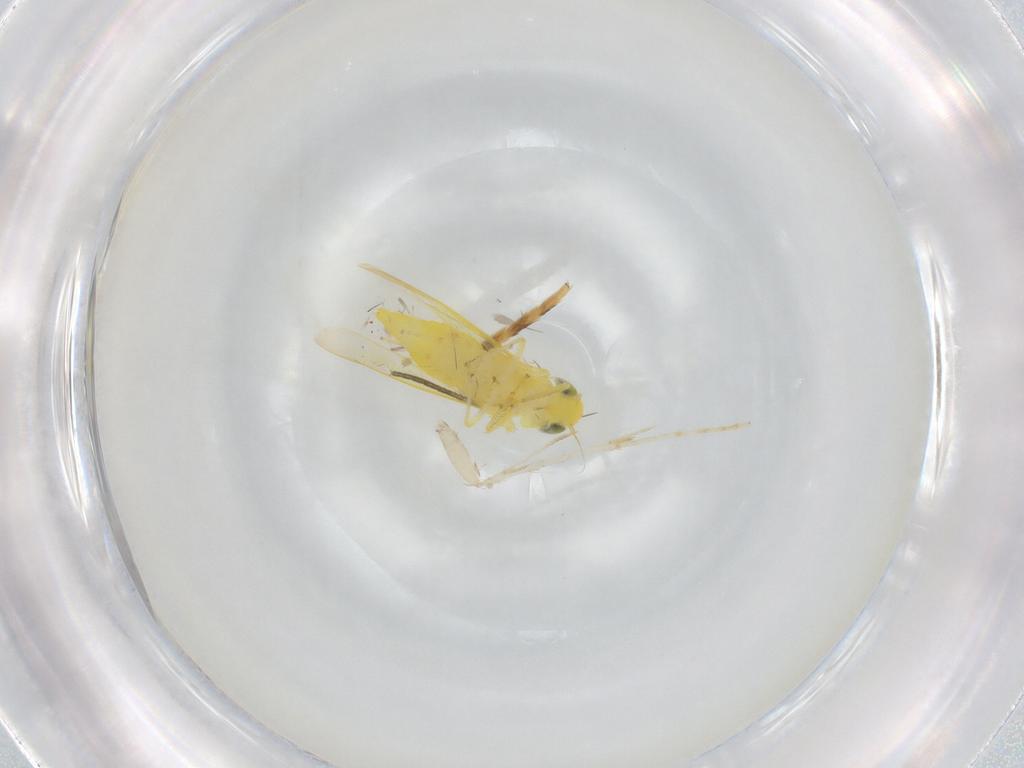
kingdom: Animalia
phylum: Arthropoda
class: Insecta
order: Hemiptera
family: Cicadellidae
